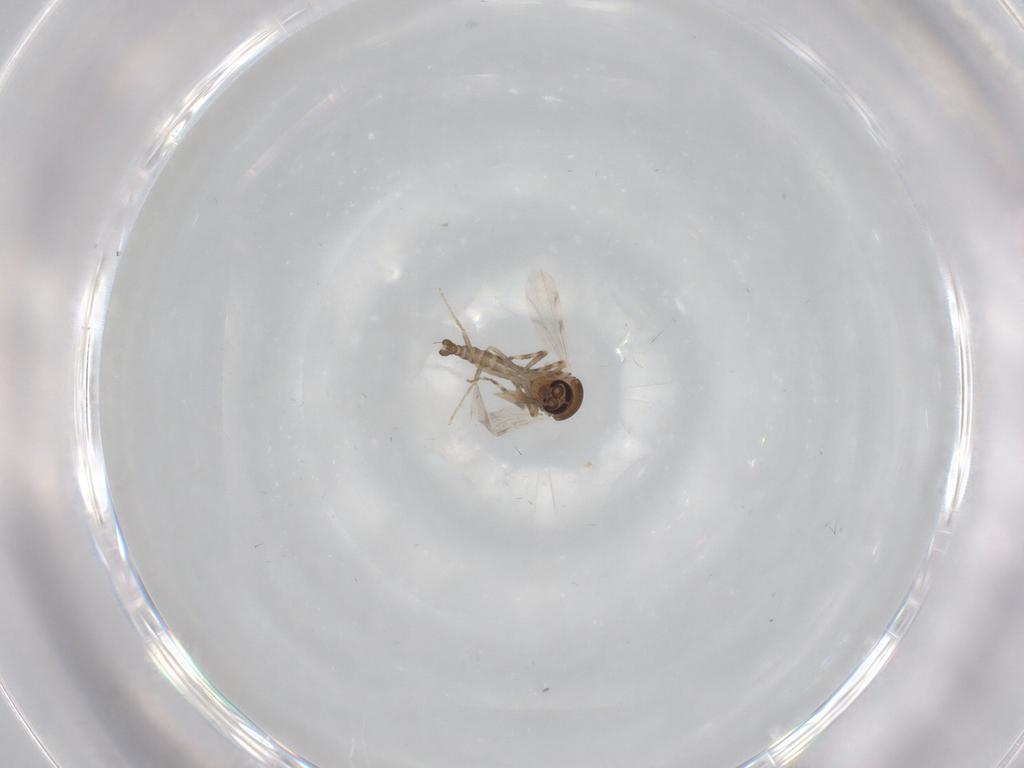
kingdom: Animalia
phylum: Arthropoda
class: Insecta
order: Diptera
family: Ceratopogonidae
